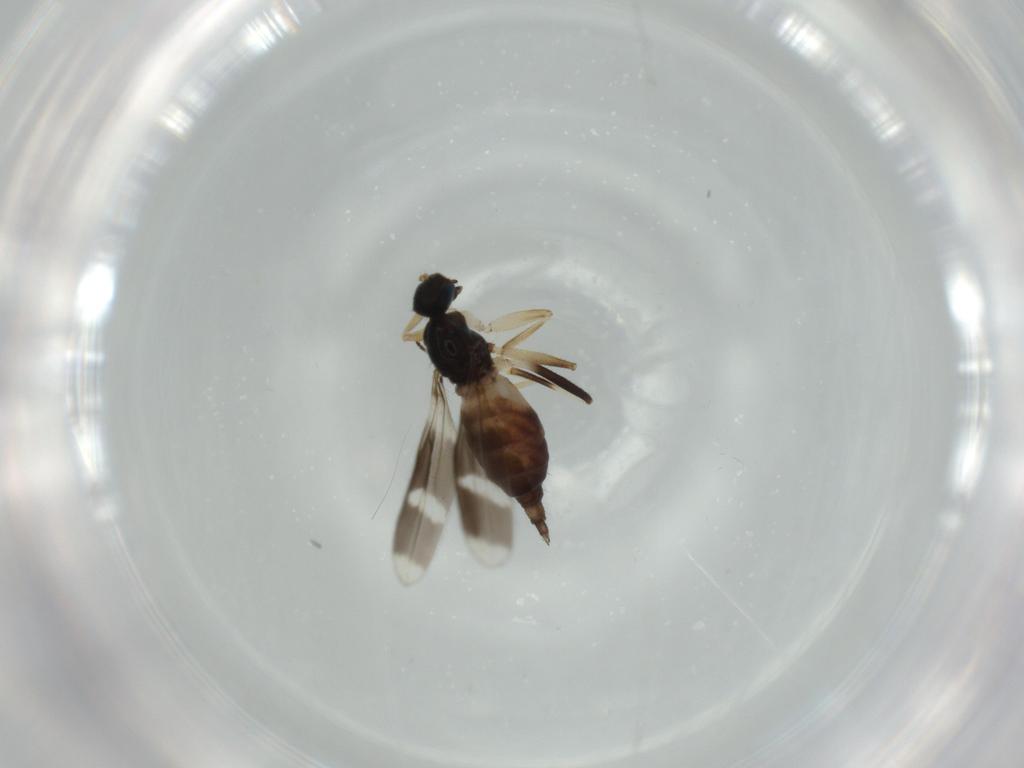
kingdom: Animalia
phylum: Arthropoda
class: Insecta
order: Diptera
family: Hybotidae
